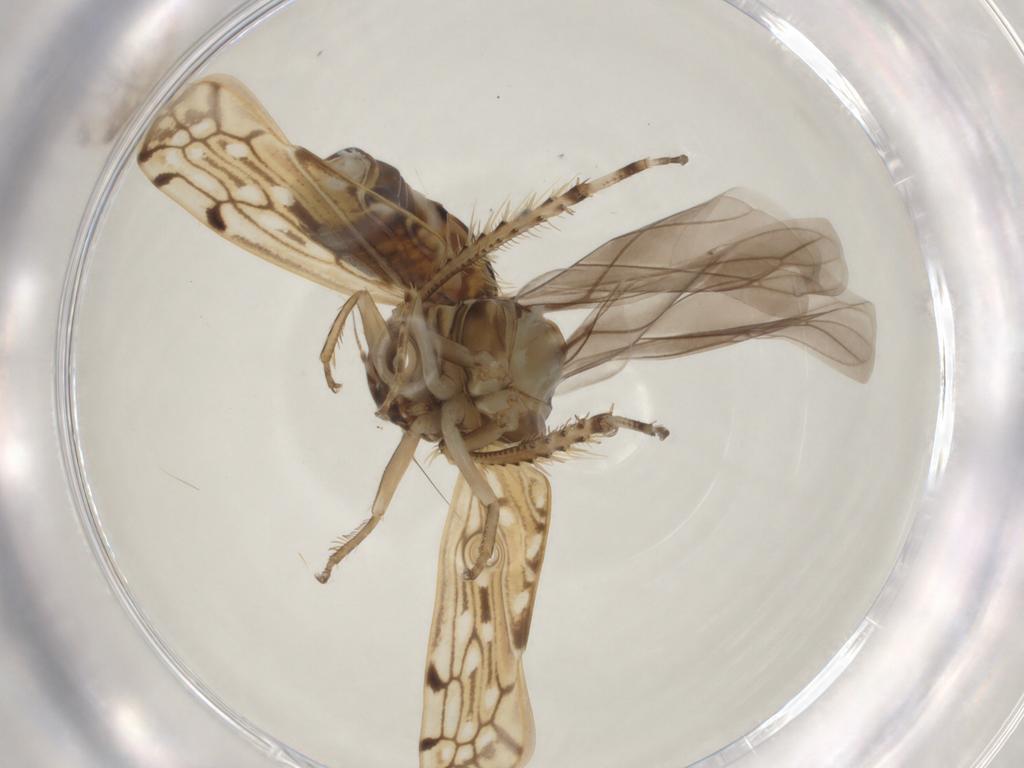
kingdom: Animalia
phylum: Arthropoda
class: Insecta
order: Hemiptera
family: Cicadellidae
